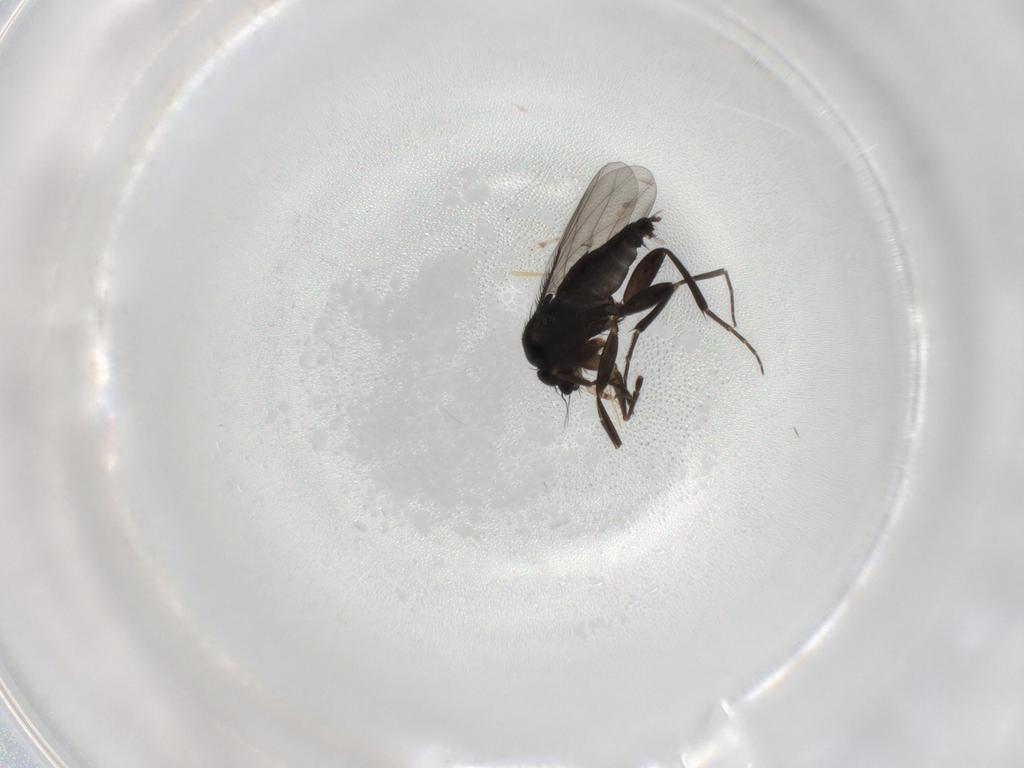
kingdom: Animalia
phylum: Arthropoda
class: Insecta
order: Diptera
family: Phoridae
